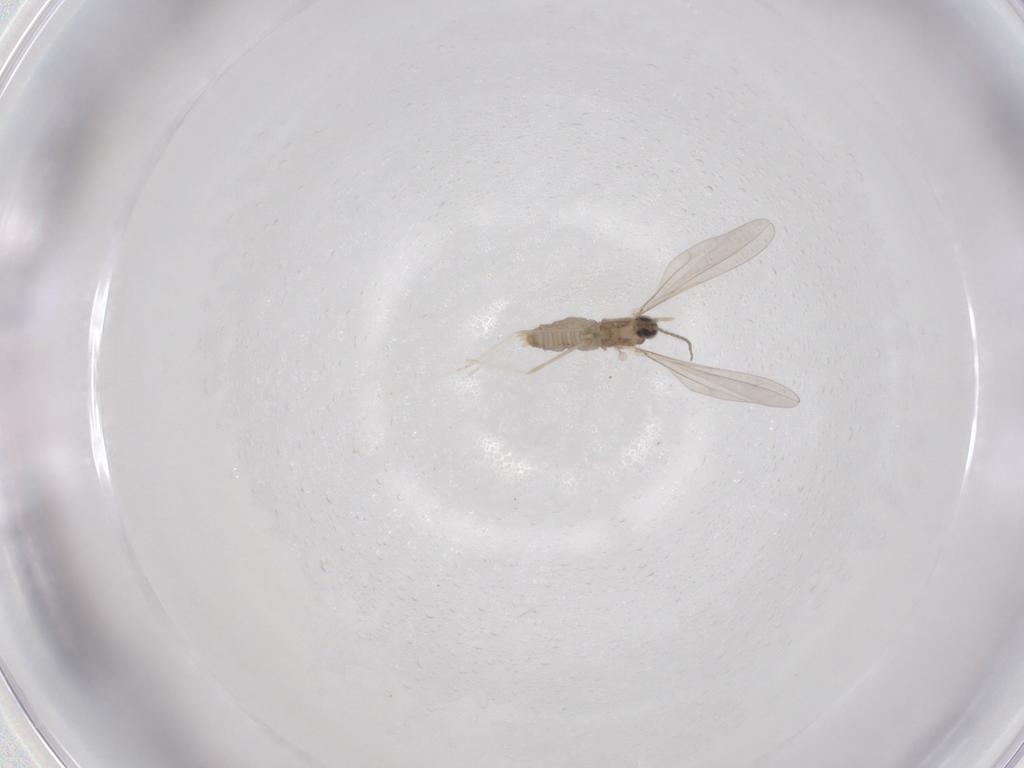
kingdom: Animalia
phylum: Arthropoda
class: Insecta
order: Diptera
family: Cecidomyiidae
